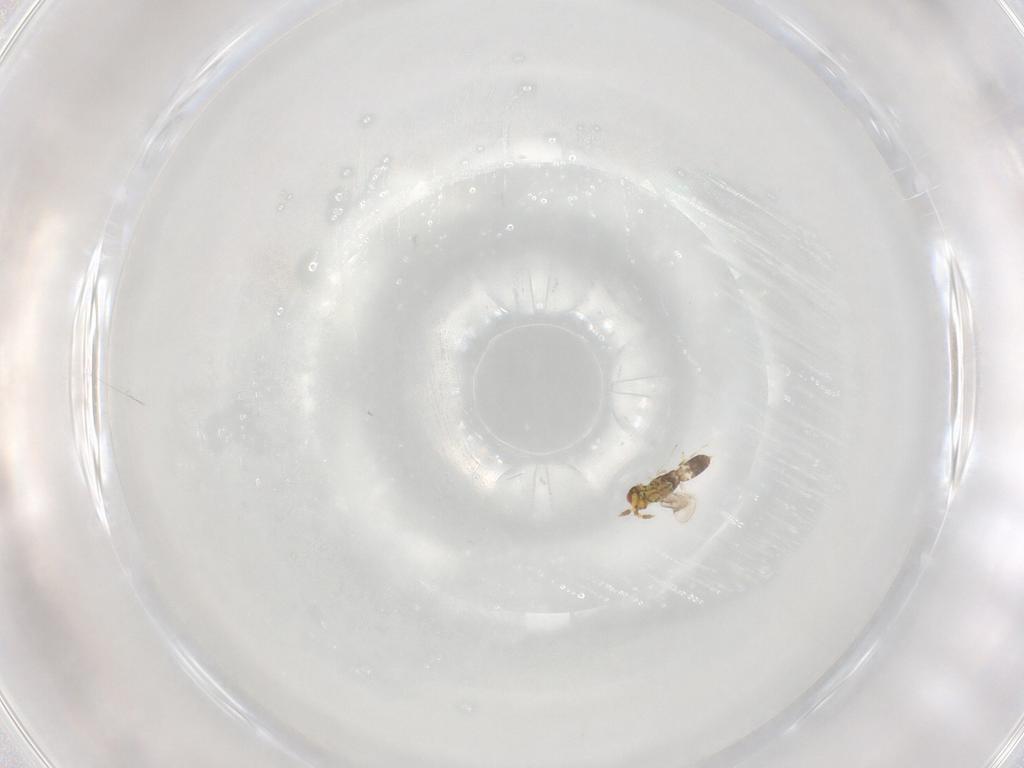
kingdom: Animalia
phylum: Arthropoda
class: Insecta
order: Hymenoptera
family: Eulophidae
